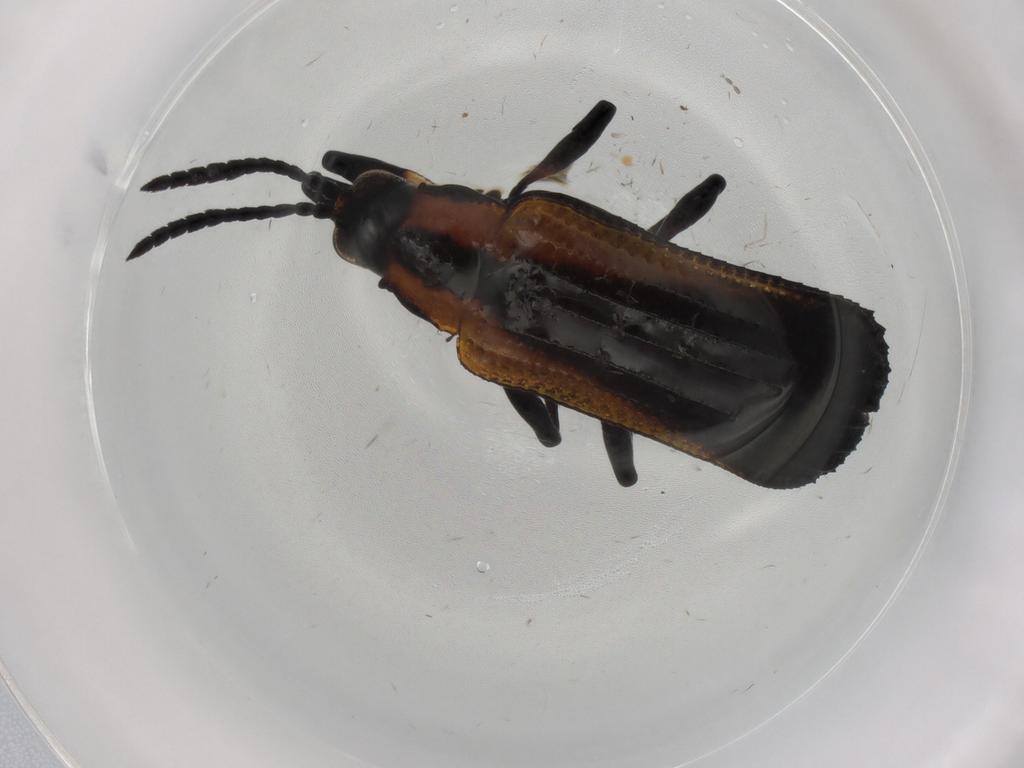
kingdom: Animalia
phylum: Arthropoda
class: Insecta
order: Coleoptera
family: Chrysomelidae
